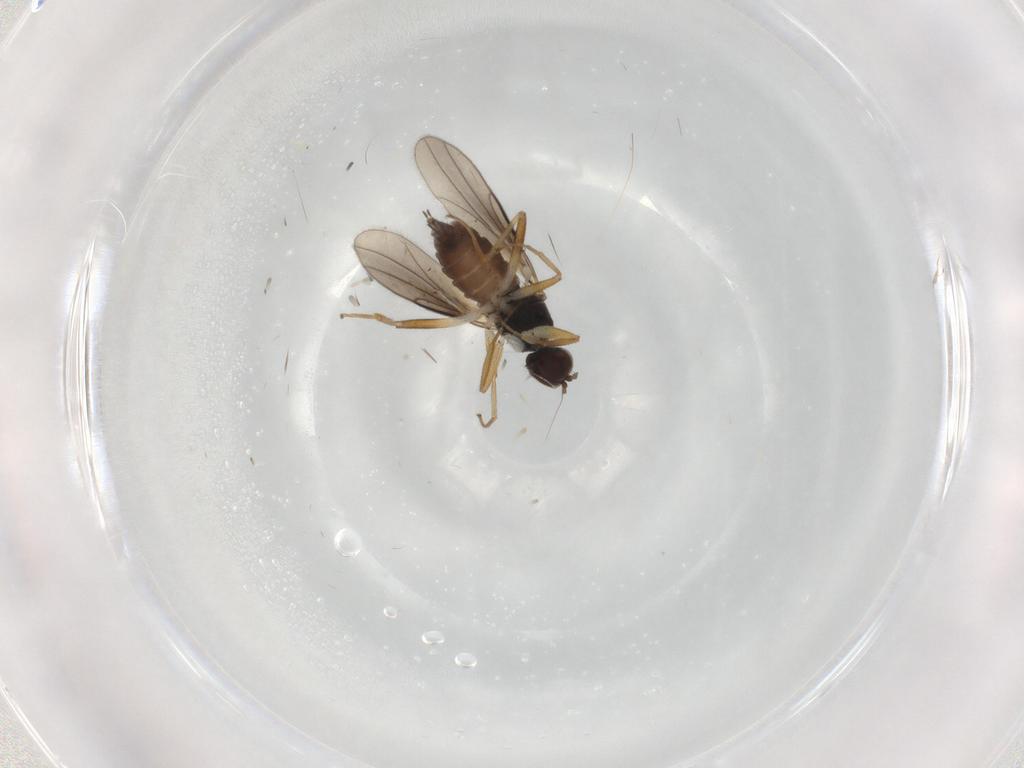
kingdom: Animalia
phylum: Arthropoda
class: Insecta
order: Diptera
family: Hybotidae
